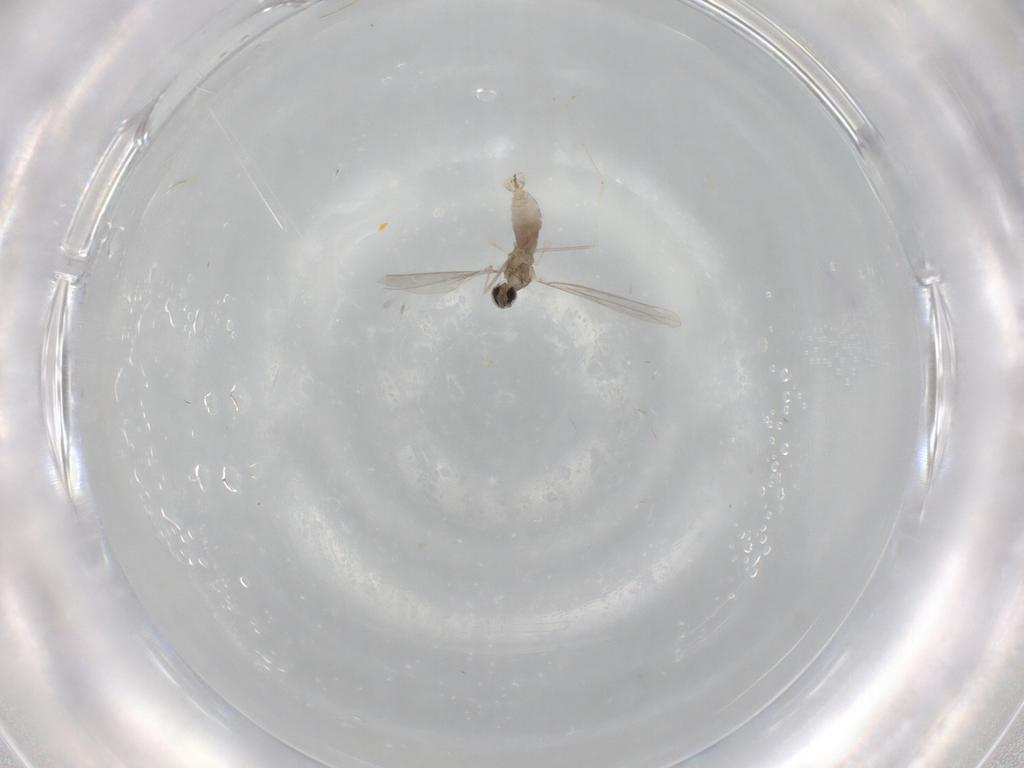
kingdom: Animalia
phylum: Arthropoda
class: Insecta
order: Diptera
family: Cecidomyiidae
